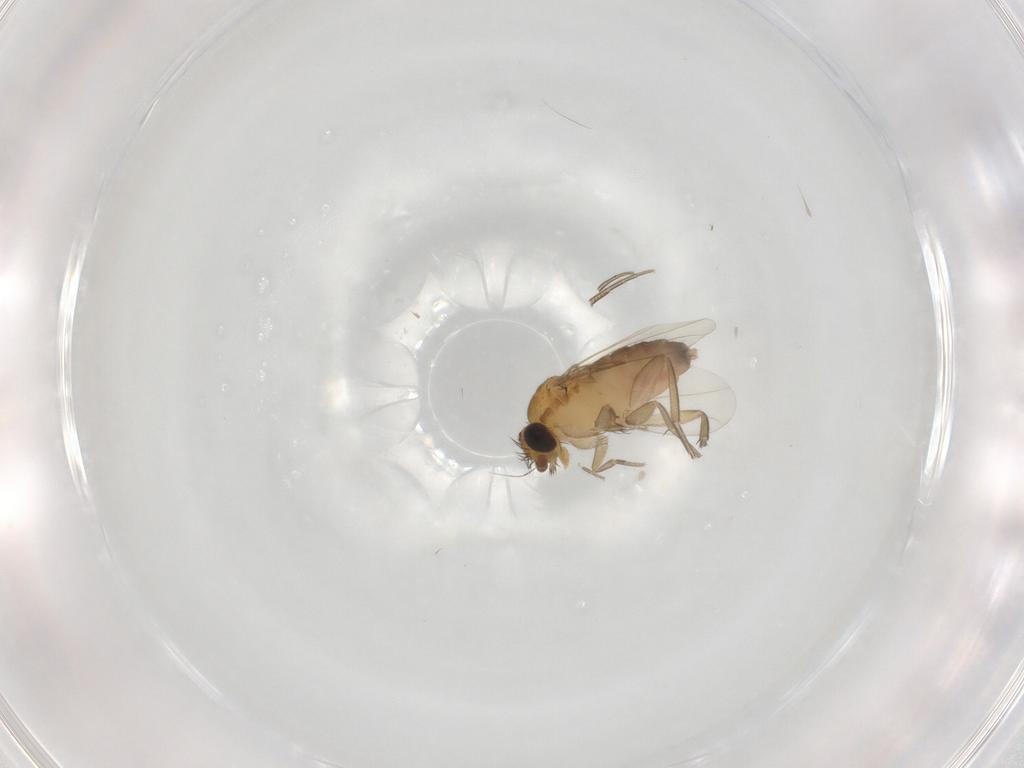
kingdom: Animalia
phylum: Arthropoda
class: Insecta
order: Diptera
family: Phoridae
